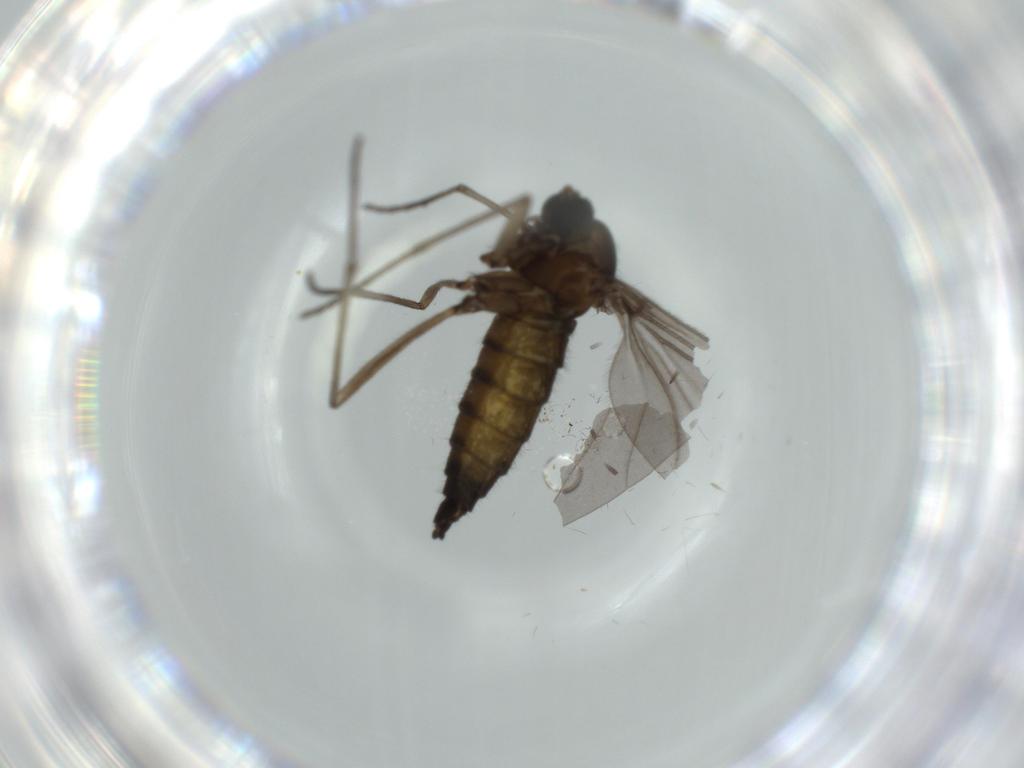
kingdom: Animalia
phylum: Arthropoda
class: Insecta
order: Diptera
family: Sciaridae
